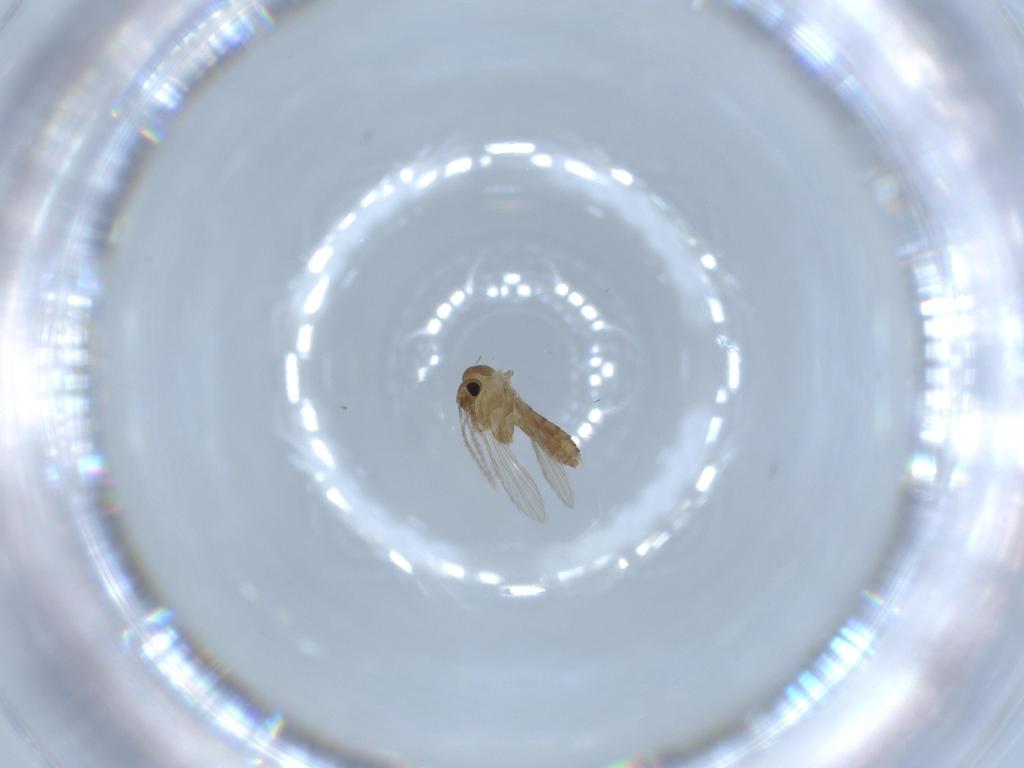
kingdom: Animalia
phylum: Arthropoda
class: Insecta
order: Diptera
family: Psychodidae
